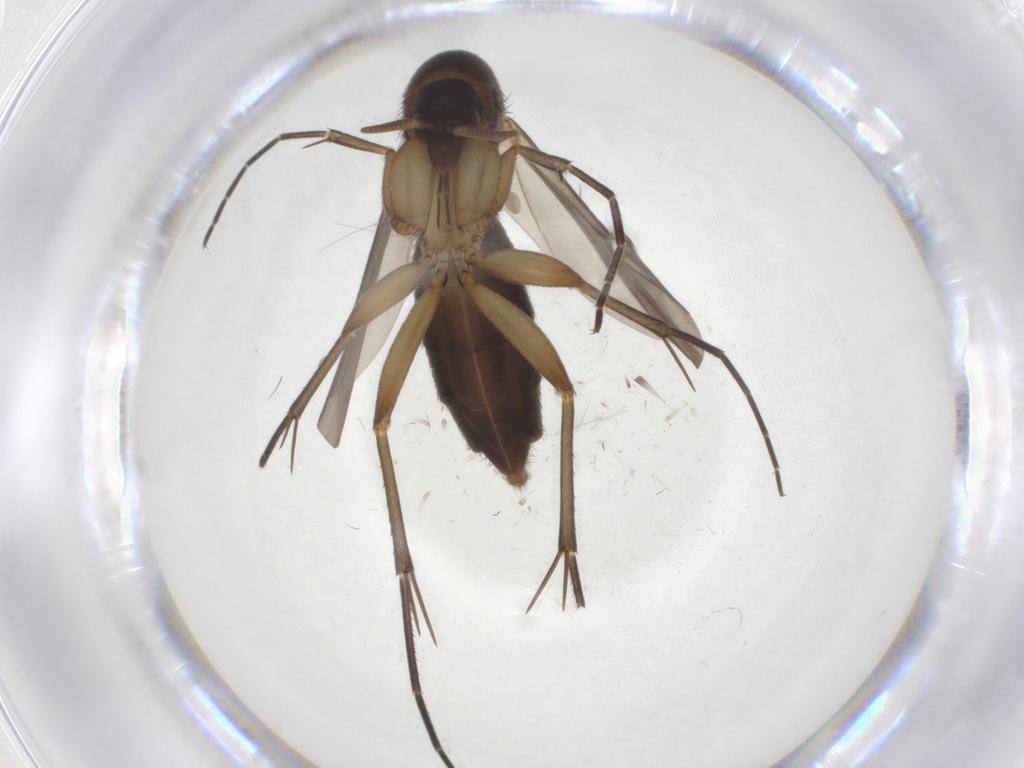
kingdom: Animalia
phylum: Arthropoda
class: Insecta
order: Diptera
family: Mycetophilidae
